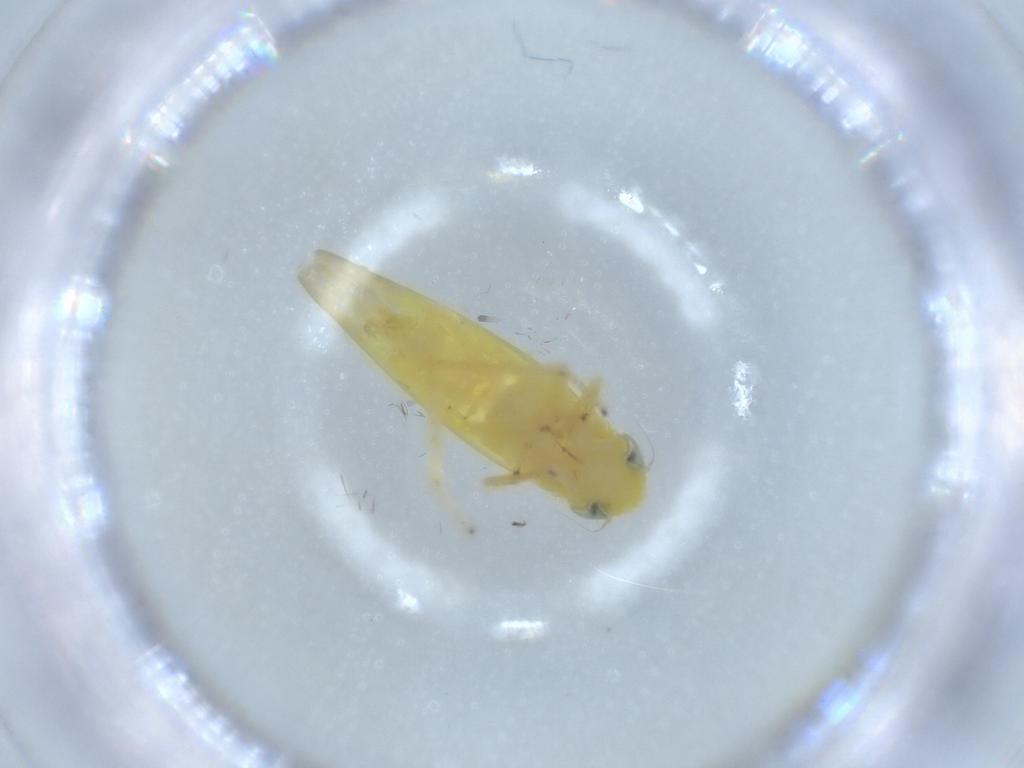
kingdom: Animalia
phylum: Arthropoda
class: Insecta
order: Hemiptera
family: Cicadellidae
